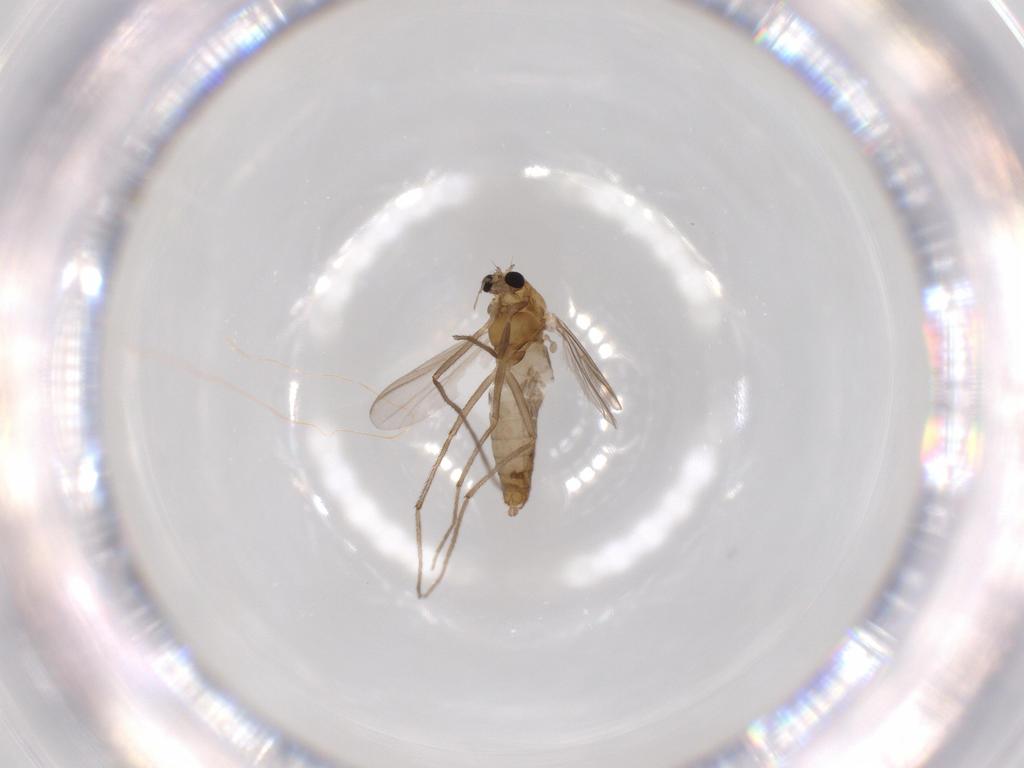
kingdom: Animalia
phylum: Arthropoda
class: Insecta
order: Diptera
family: Chironomidae
